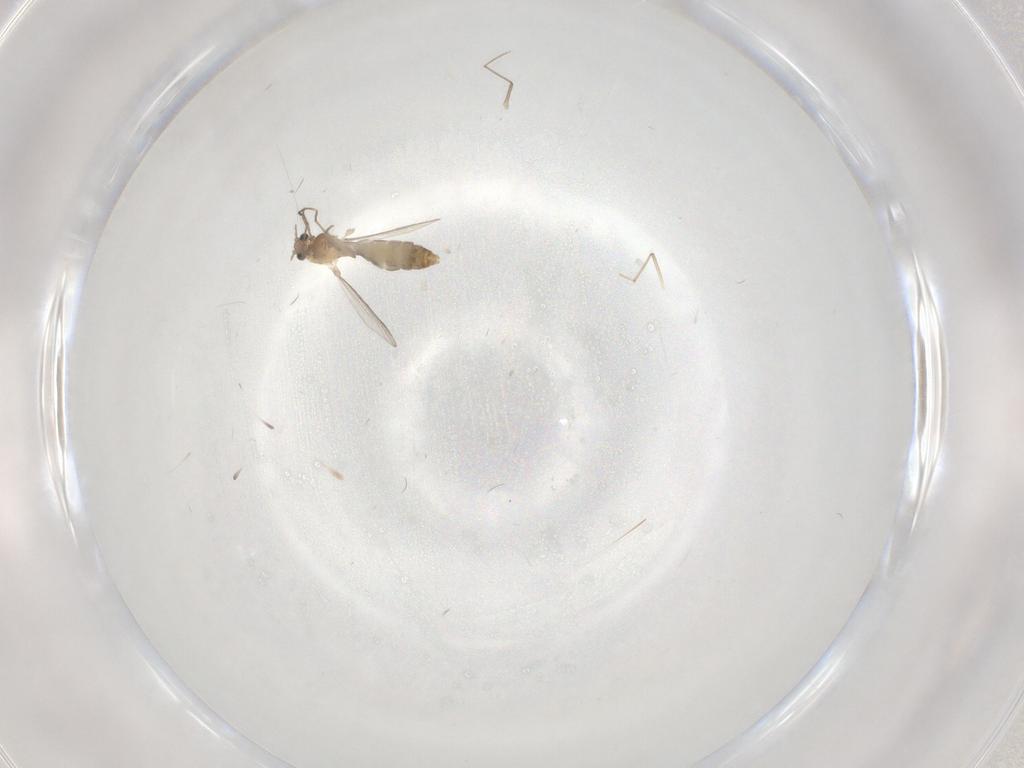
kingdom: Animalia
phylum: Arthropoda
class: Insecta
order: Diptera
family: Chironomidae
